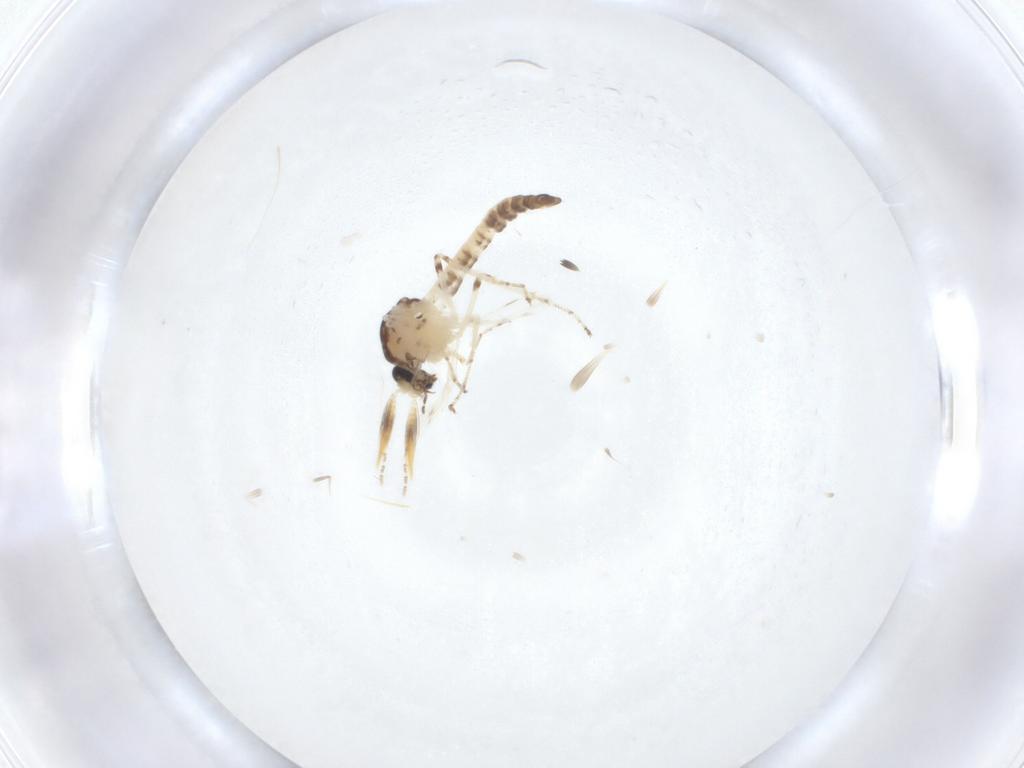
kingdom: Animalia
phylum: Arthropoda
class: Insecta
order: Diptera
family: Ceratopogonidae
